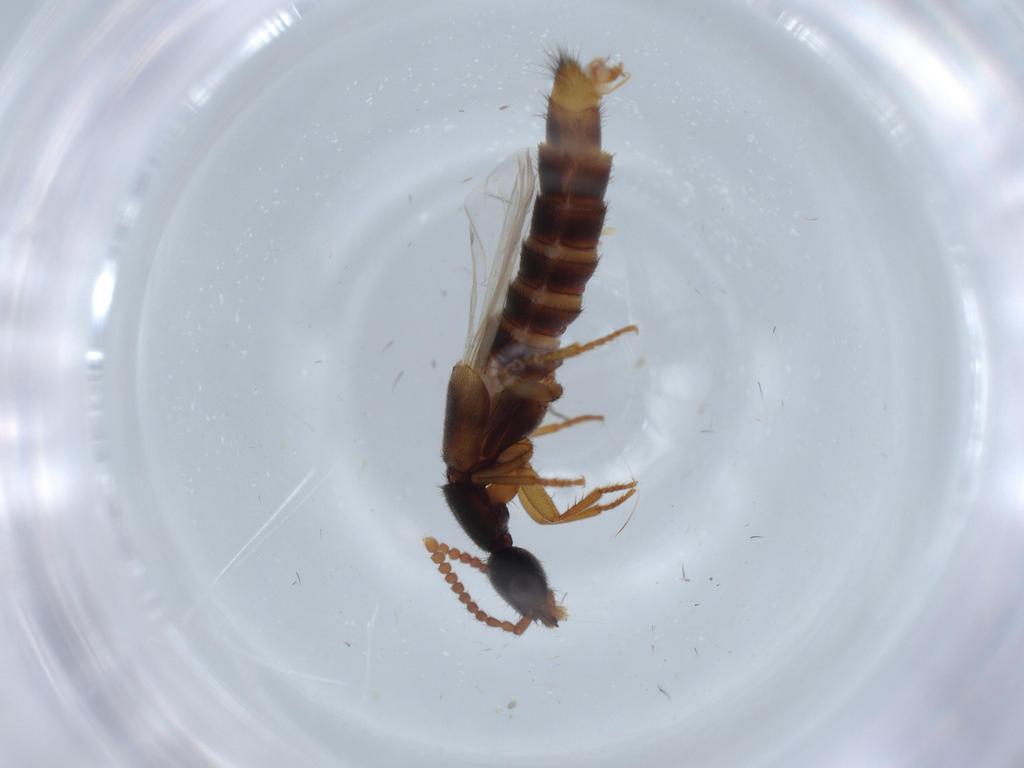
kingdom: Animalia
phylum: Arthropoda
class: Insecta
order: Coleoptera
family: Staphylinidae
